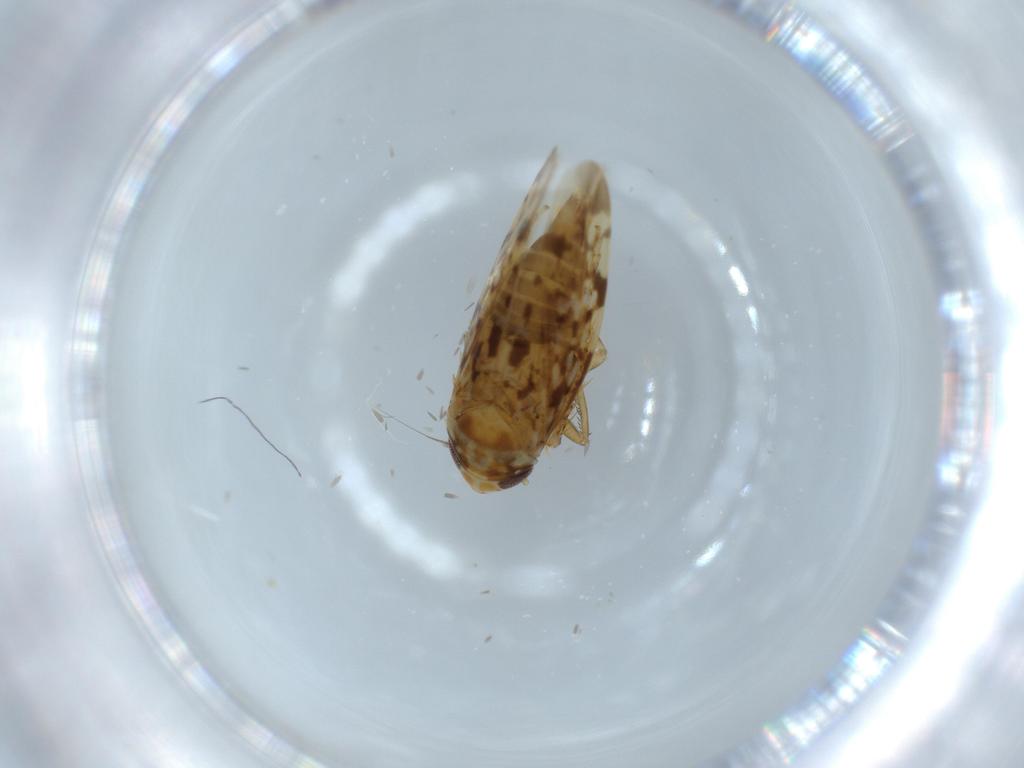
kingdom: Animalia
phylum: Arthropoda
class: Insecta
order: Hemiptera
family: Cicadellidae
